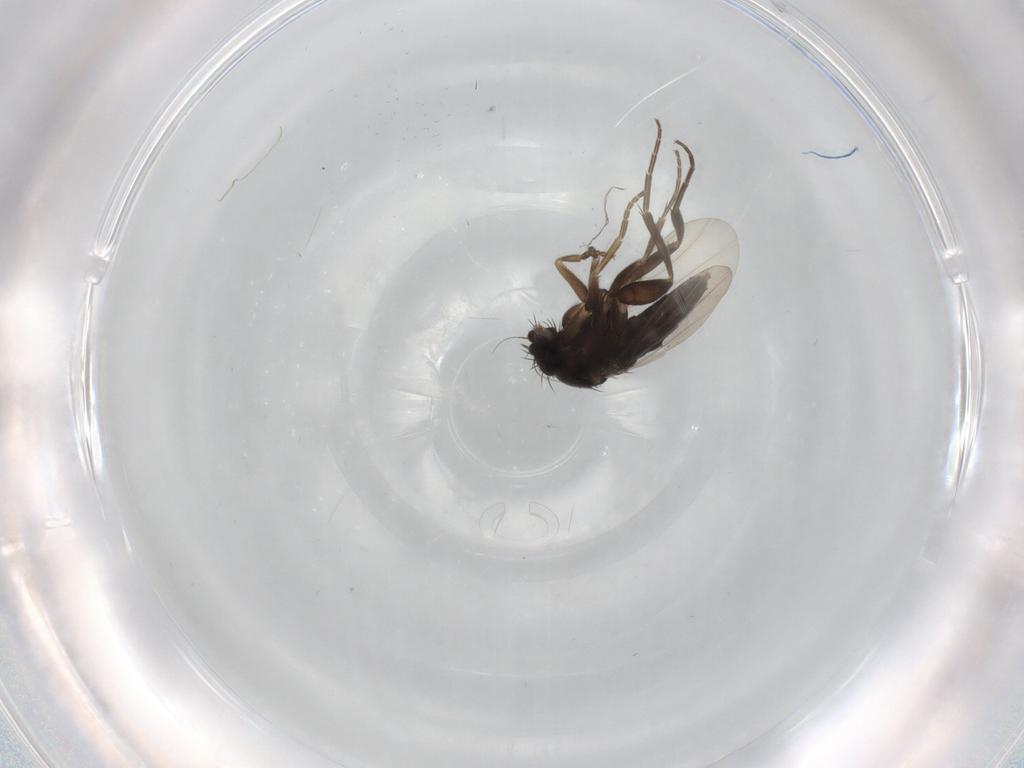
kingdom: Animalia
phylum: Arthropoda
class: Insecta
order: Diptera
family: Phoridae
